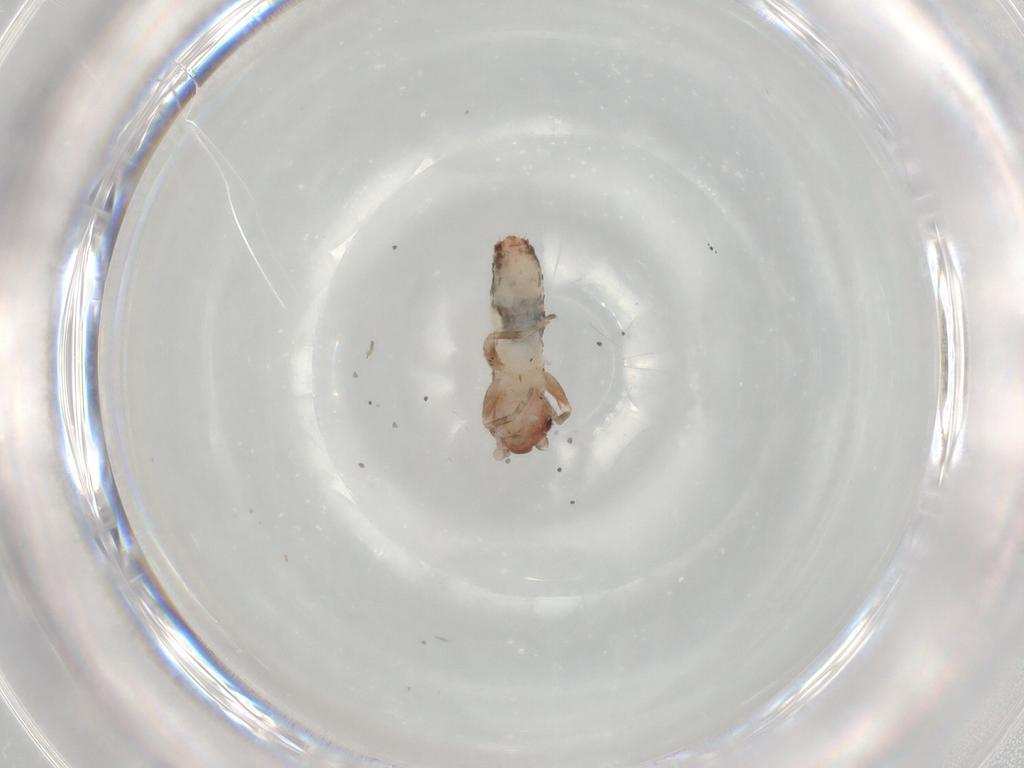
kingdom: Animalia
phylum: Arthropoda
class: Insecta
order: Orthoptera
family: Mogoplistidae
